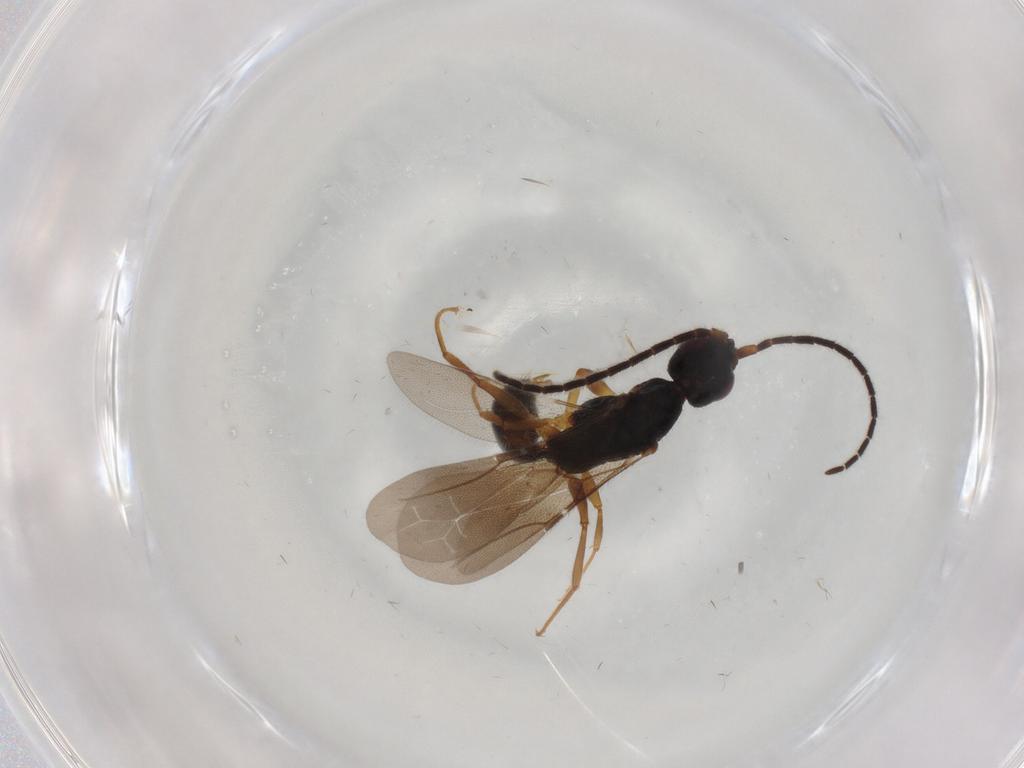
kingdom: Animalia
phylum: Arthropoda
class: Insecta
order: Hymenoptera
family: Bethylidae
